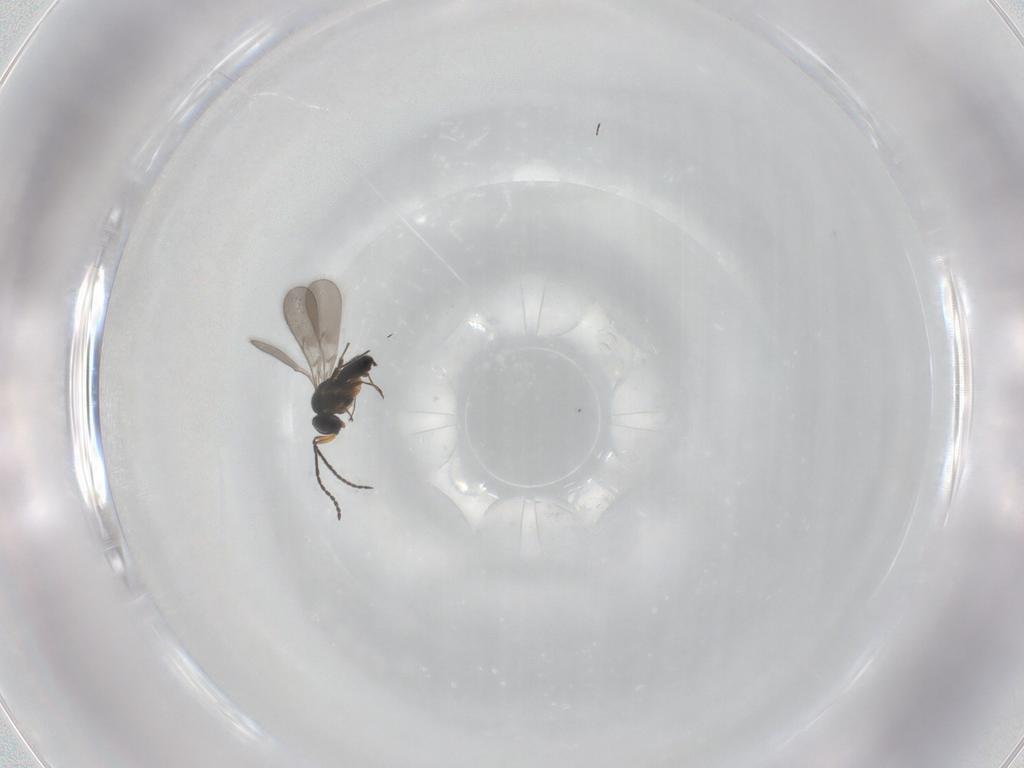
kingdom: Animalia
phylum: Arthropoda
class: Insecta
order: Hymenoptera
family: Scelionidae
